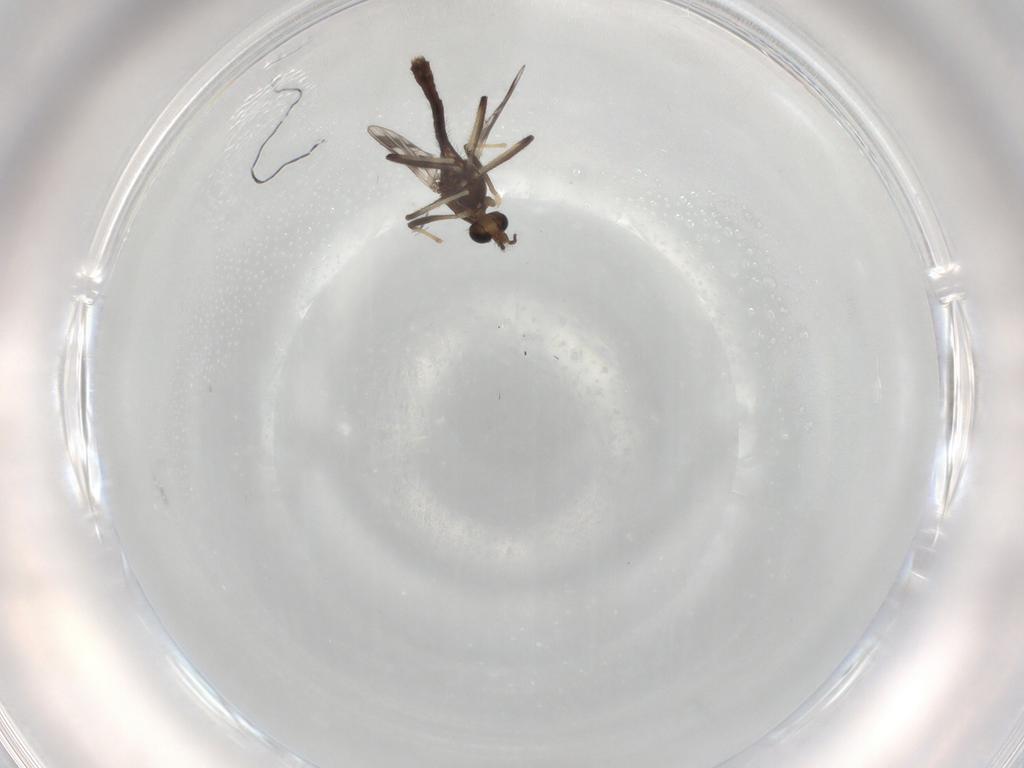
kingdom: Animalia
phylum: Arthropoda
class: Insecta
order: Diptera
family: Chironomidae
